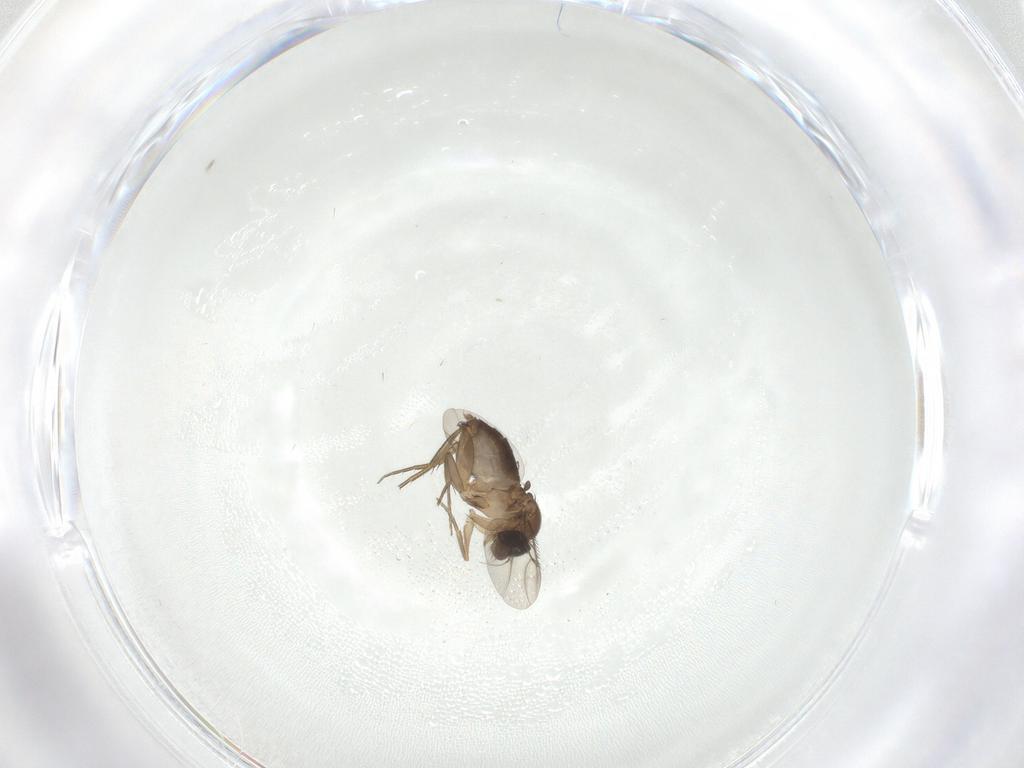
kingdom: Animalia
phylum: Arthropoda
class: Insecta
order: Diptera
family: Phoridae
